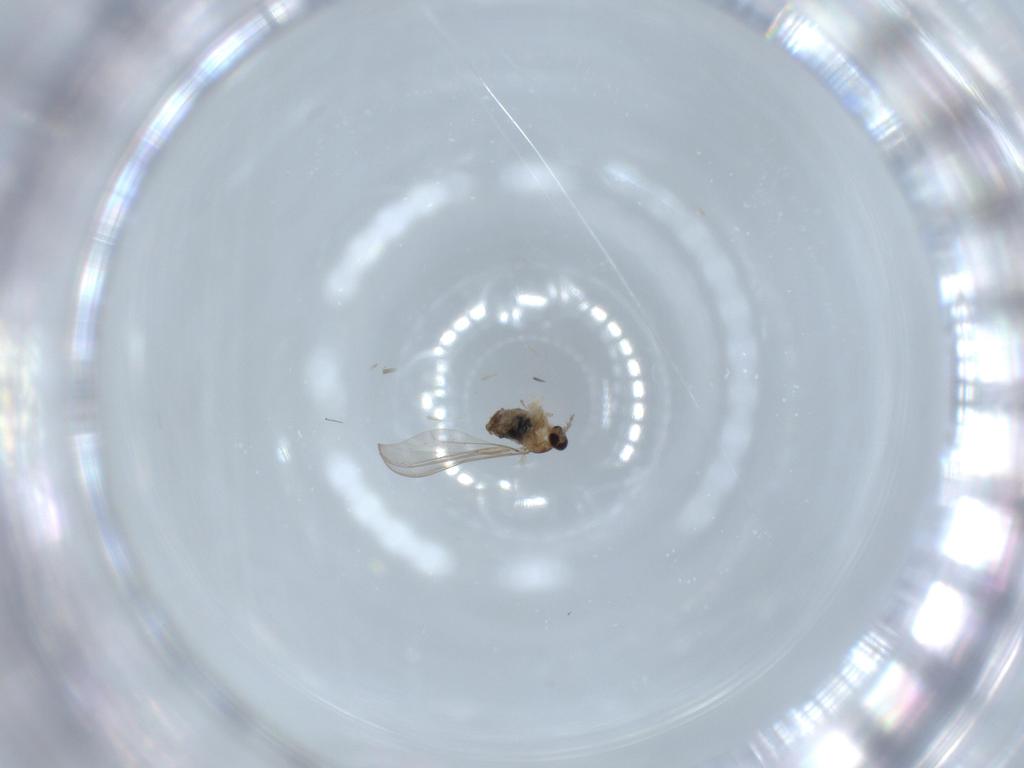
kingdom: Animalia
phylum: Arthropoda
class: Insecta
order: Diptera
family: Cecidomyiidae
